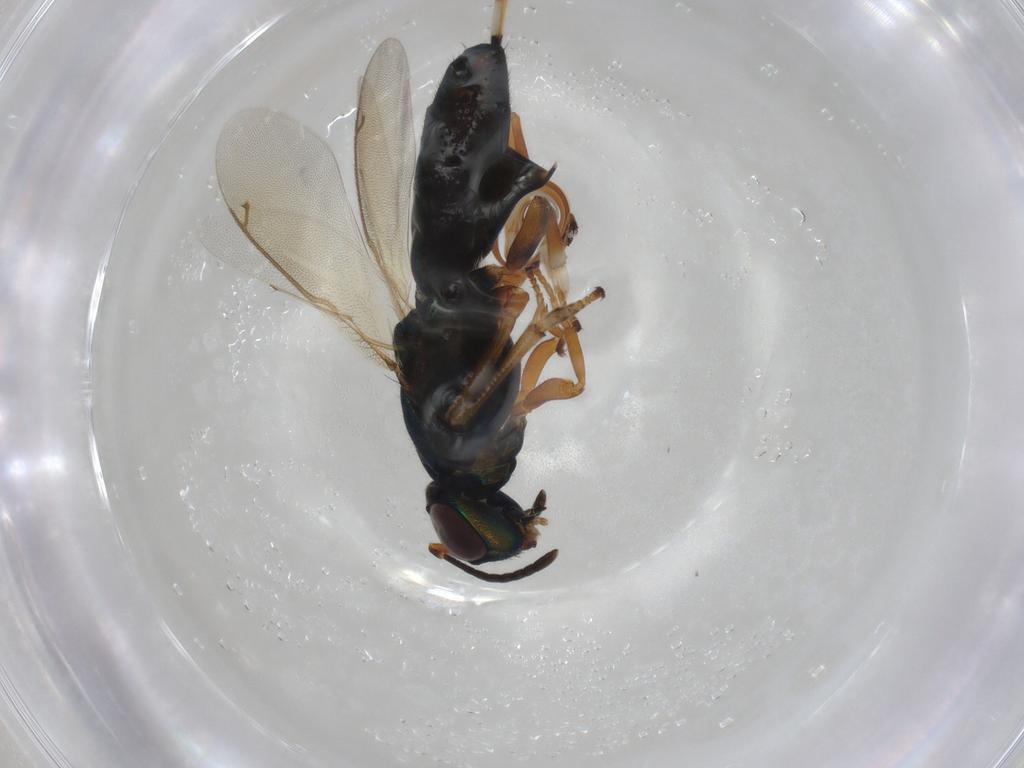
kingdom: Animalia
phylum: Arthropoda
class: Insecta
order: Hymenoptera
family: Eupelmidae
